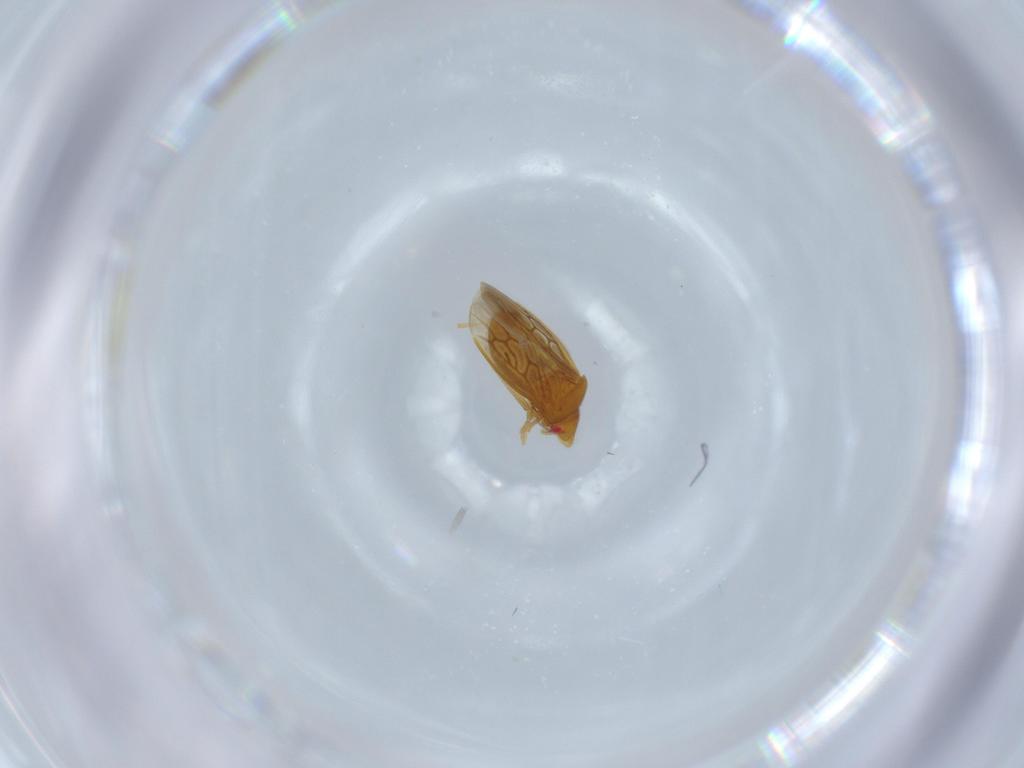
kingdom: Animalia
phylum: Arthropoda
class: Insecta
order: Hemiptera
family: Schizopteridae
